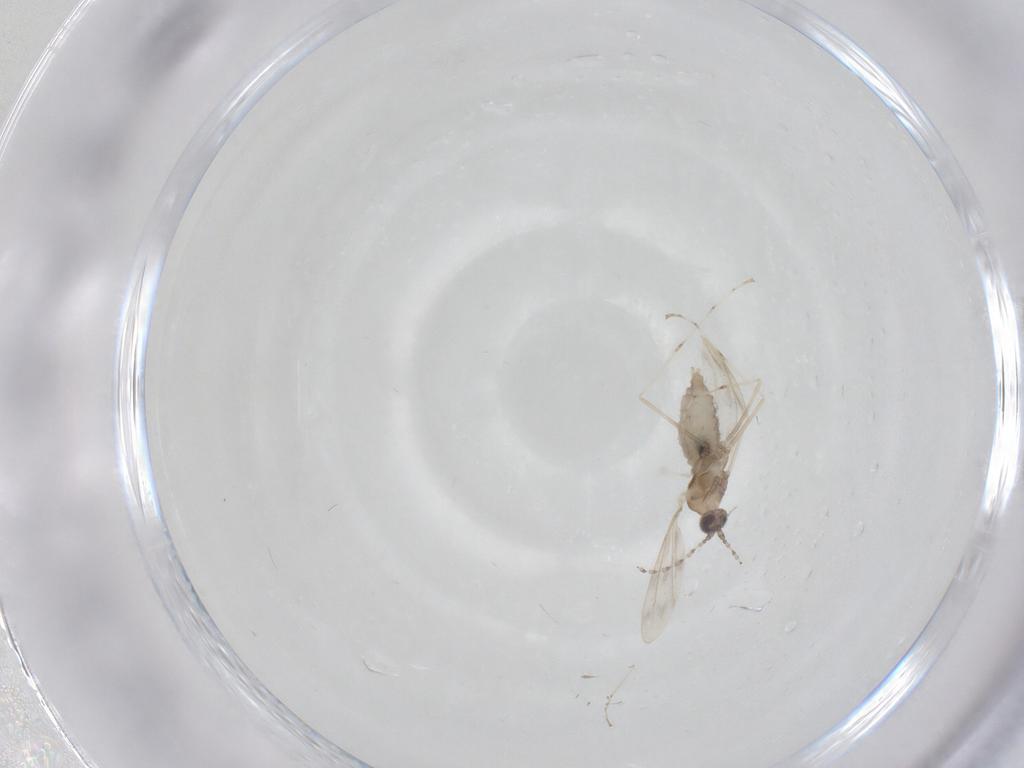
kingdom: Animalia
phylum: Arthropoda
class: Insecta
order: Diptera
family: Cecidomyiidae
